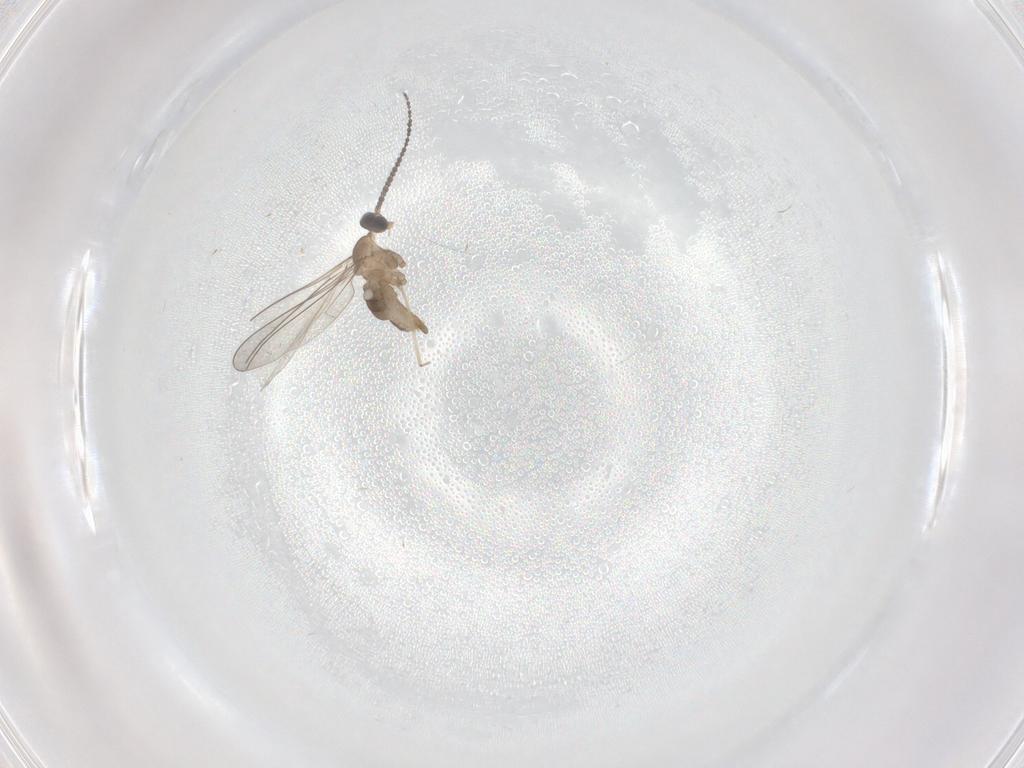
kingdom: Animalia
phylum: Arthropoda
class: Insecta
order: Diptera
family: Cecidomyiidae
